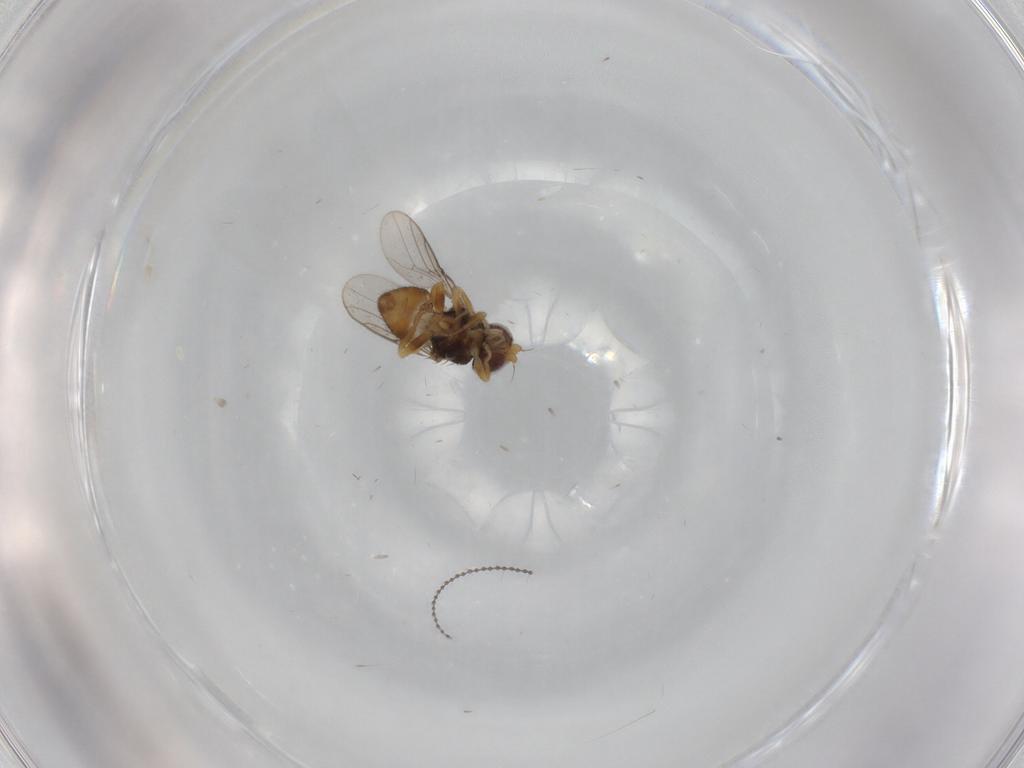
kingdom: Animalia
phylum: Arthropoda
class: Insecta
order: Diptera
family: Chloropidae
